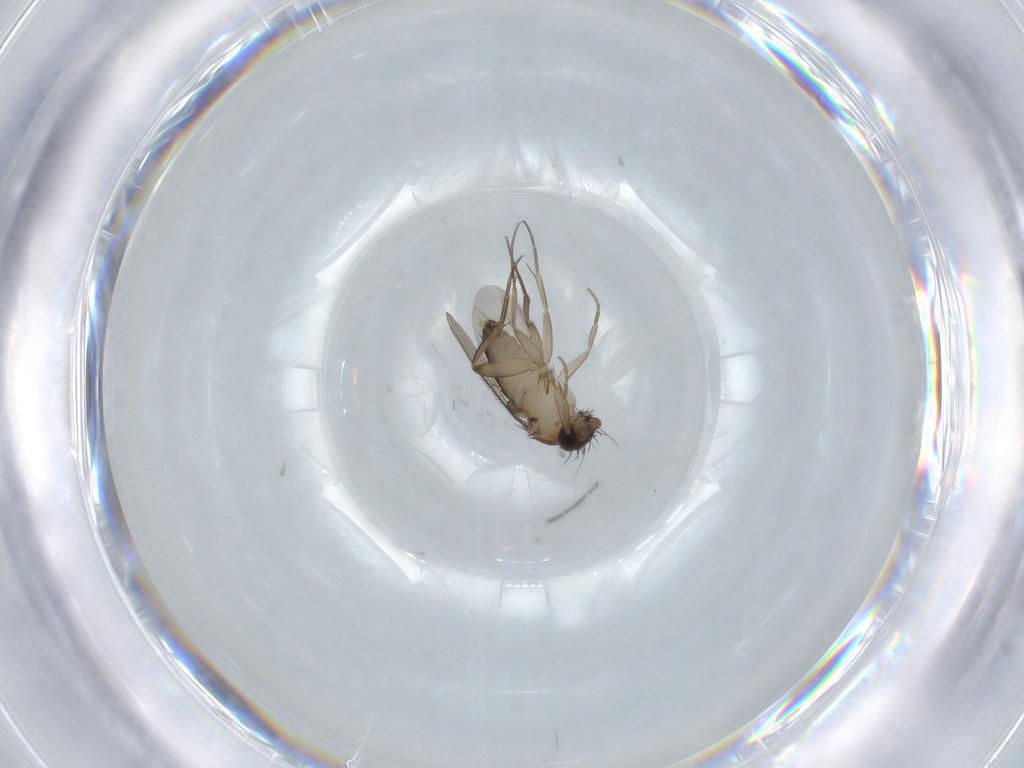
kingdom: Animalia
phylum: Arthropoda
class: Insecta
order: Diptera
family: Phoridae
